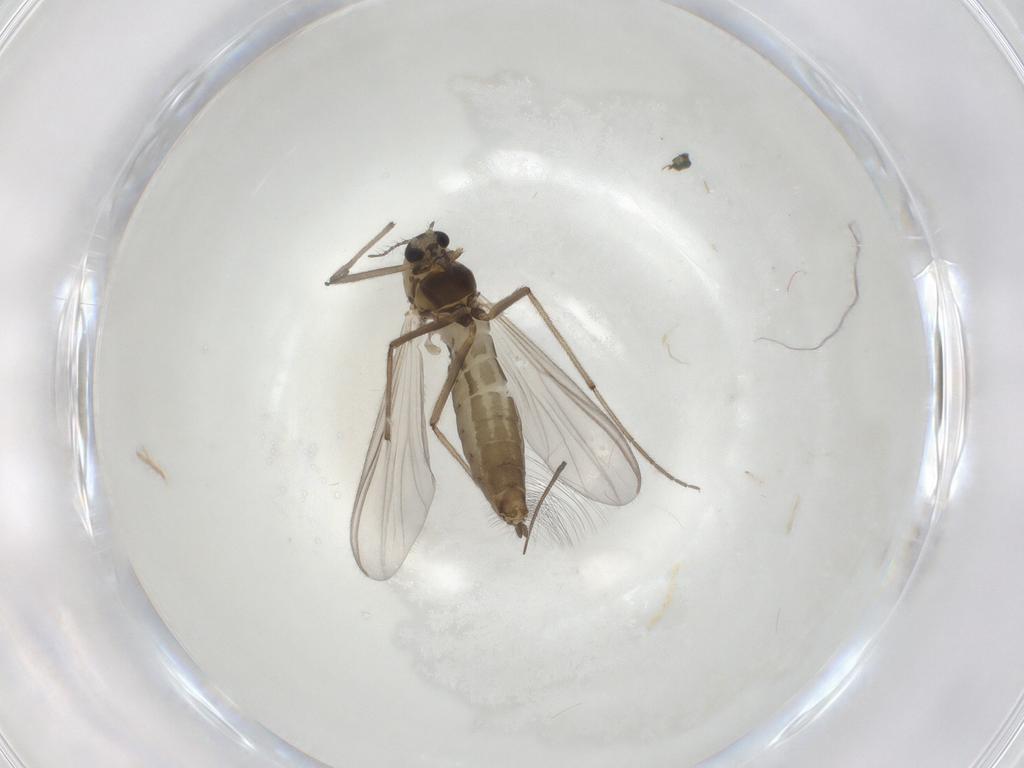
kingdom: Animalia
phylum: Arthropoda
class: Insecta
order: Diptera
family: Chironomidae
